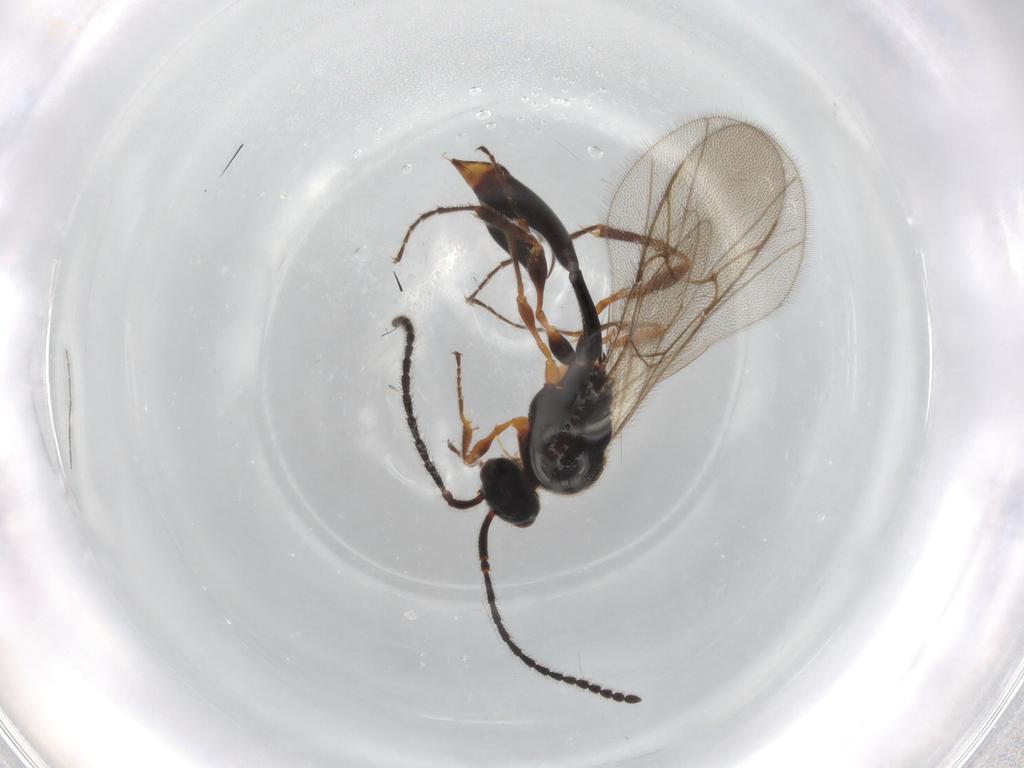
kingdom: Animalia
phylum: Arthropoda
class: Insecta
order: Hymenoptera
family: Diapriidae
